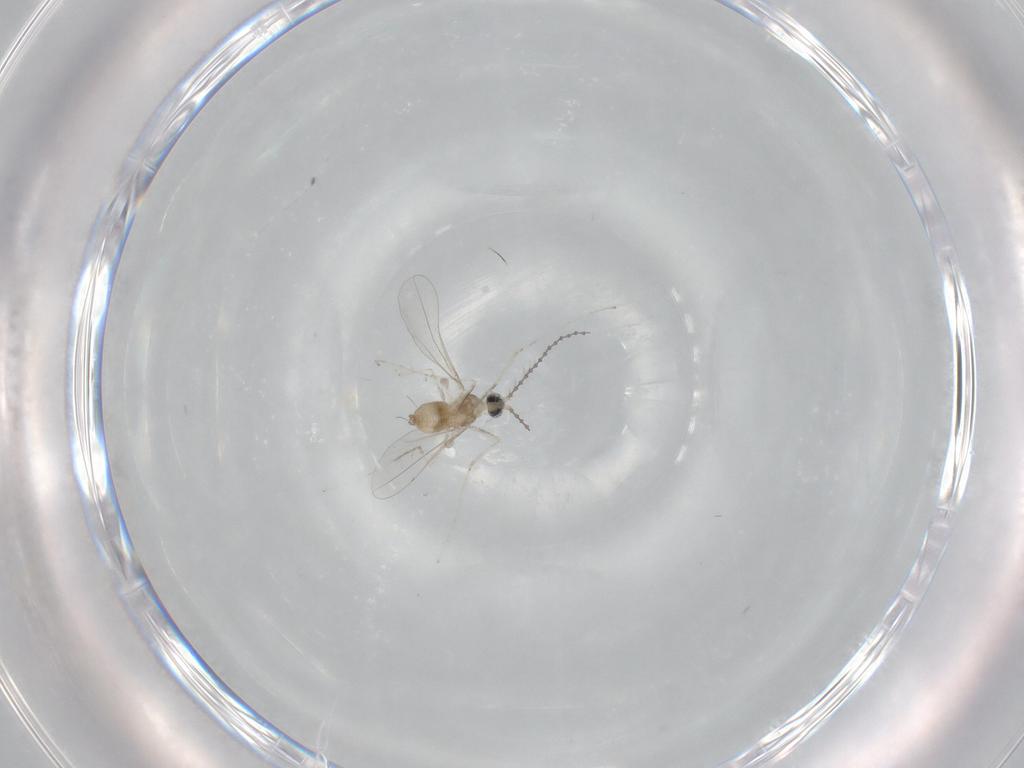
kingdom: Animalia
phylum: Arthropoda
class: Insecta
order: Diptera
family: Cecidomyiidae
